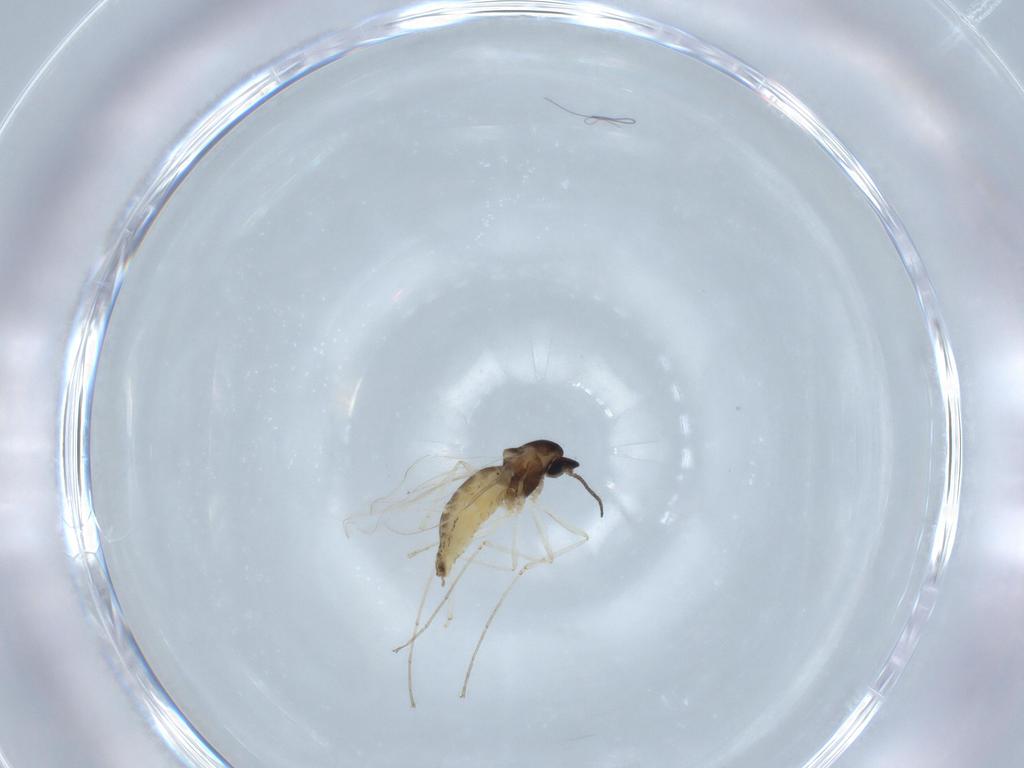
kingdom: Animalia
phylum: Arthropoda
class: Insecta
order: Diptera
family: Cecidomyiidae
